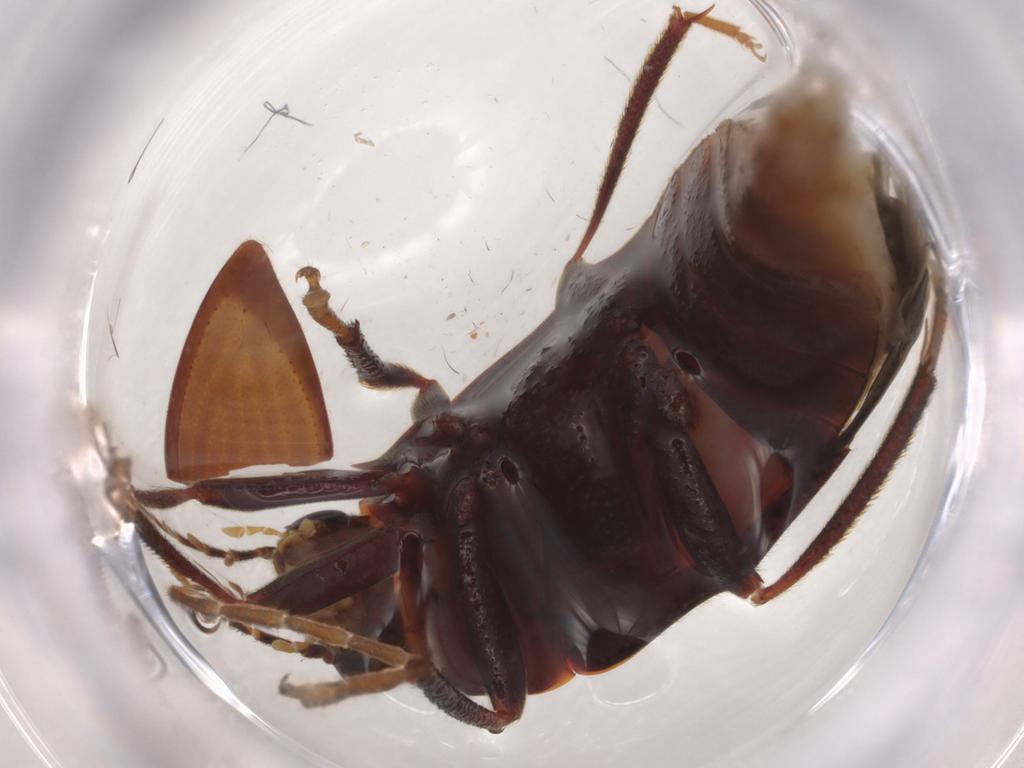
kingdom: Animalia
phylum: Arthropoda
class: Insecta
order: Coleoptera
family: Ptilodactylidae
